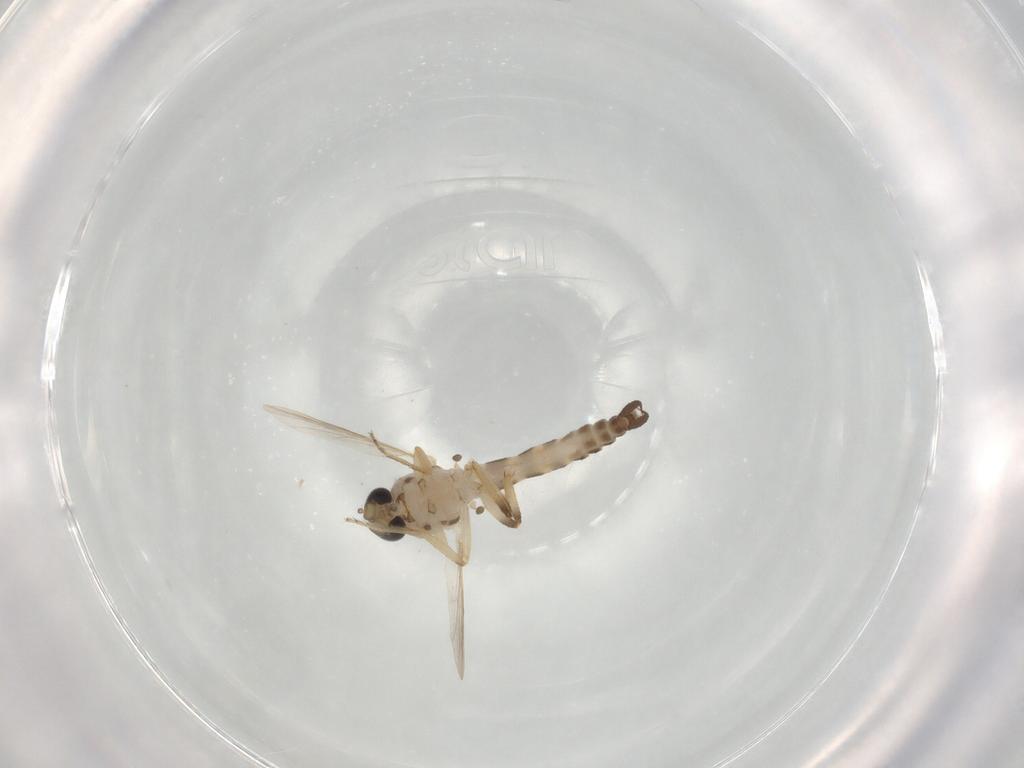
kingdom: Animalia
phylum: Arthropoda
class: Insecta
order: Diptera
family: Ceratopogonidae
